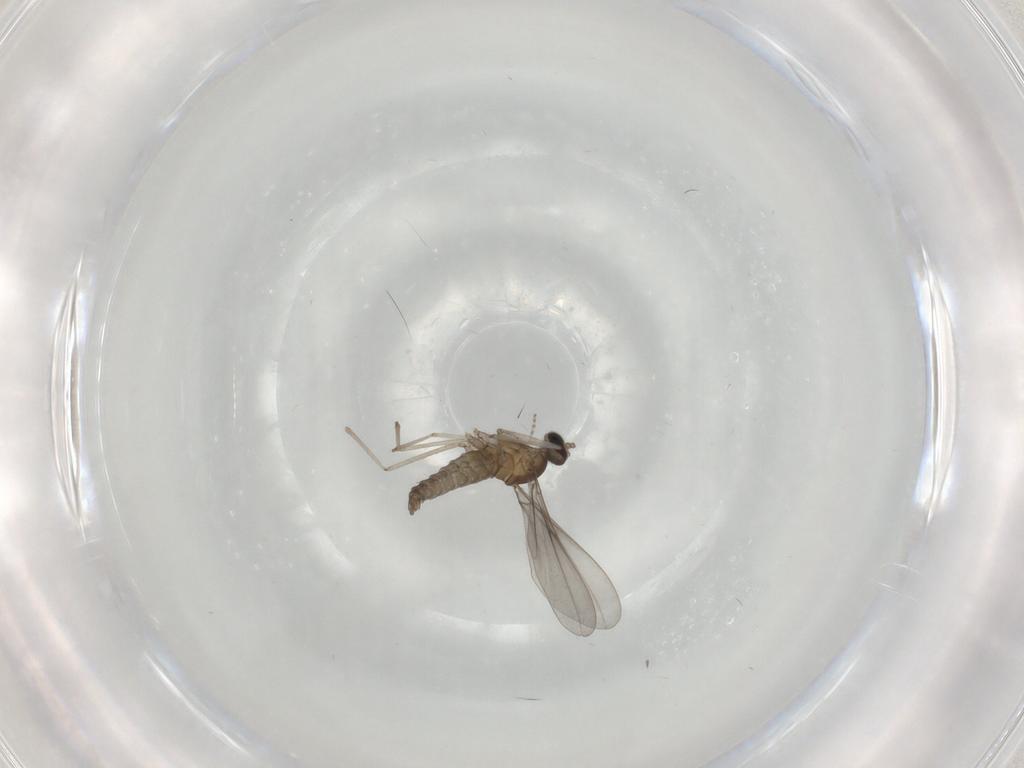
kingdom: Animalia
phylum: Arthropoda
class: Insecta
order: Diptera
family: Cecidomyiidae
